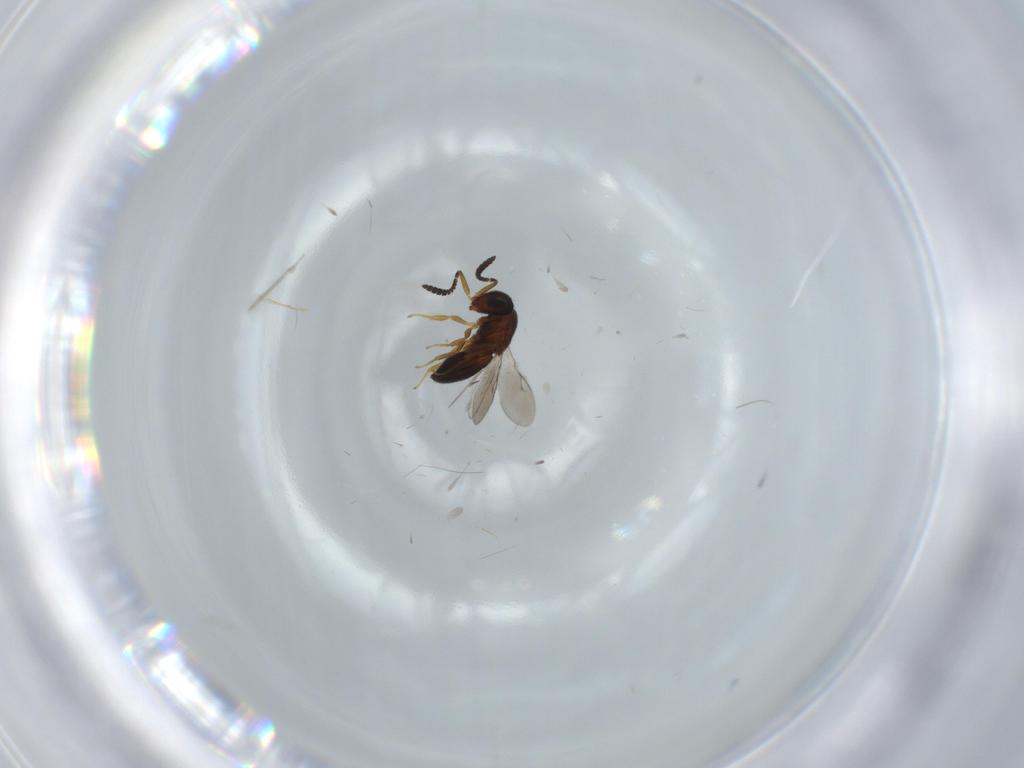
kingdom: Animalia
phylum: Arthropoda
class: Insecta
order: Hymenoptera
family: Scelionidae
